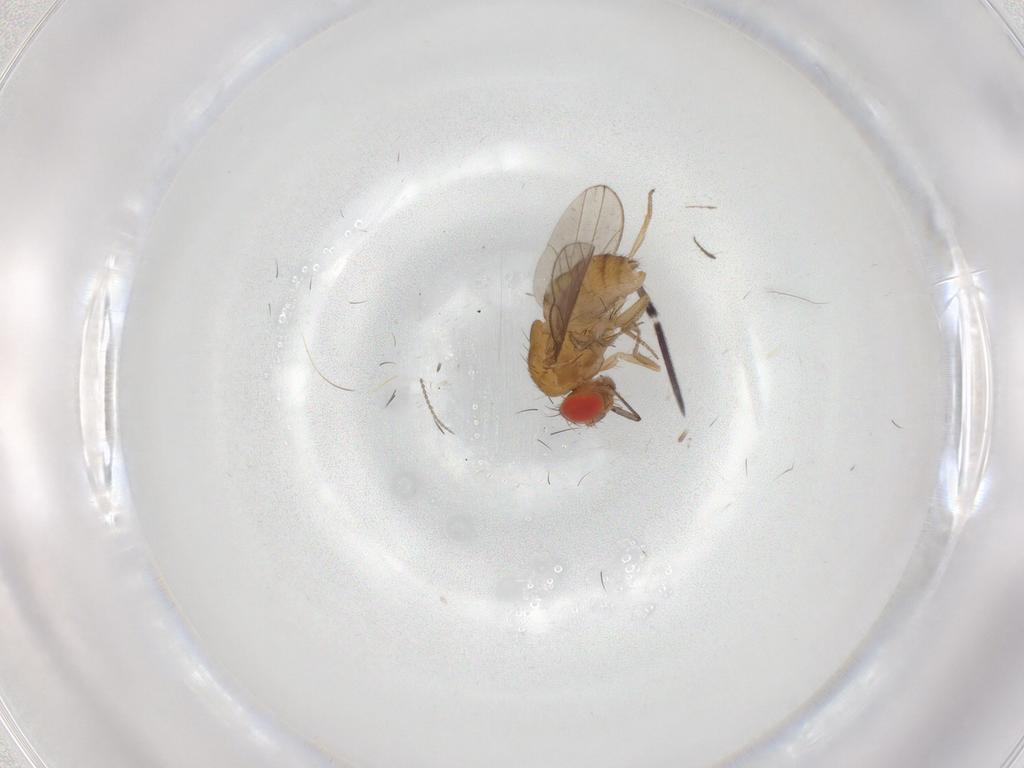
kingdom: Animalia
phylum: Arthropoda
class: Insecta
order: Diptera
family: Drosophilidae
